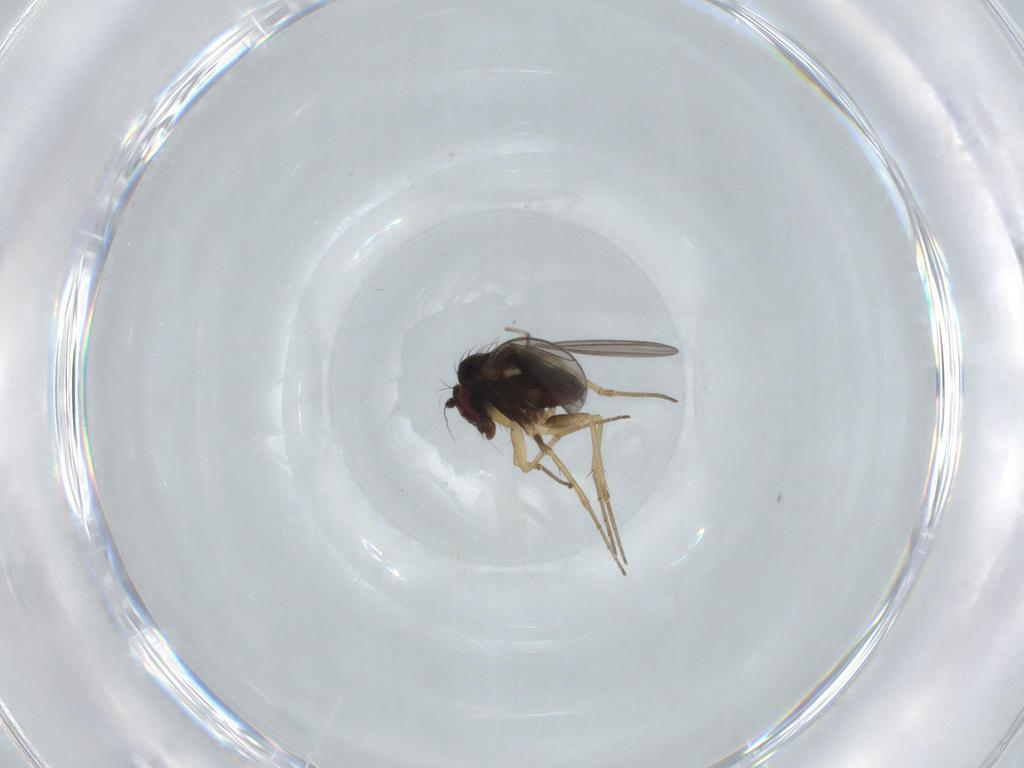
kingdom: Animalia
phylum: Arthropoda
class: Insecta
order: Diptera
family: Dolichopodidae
